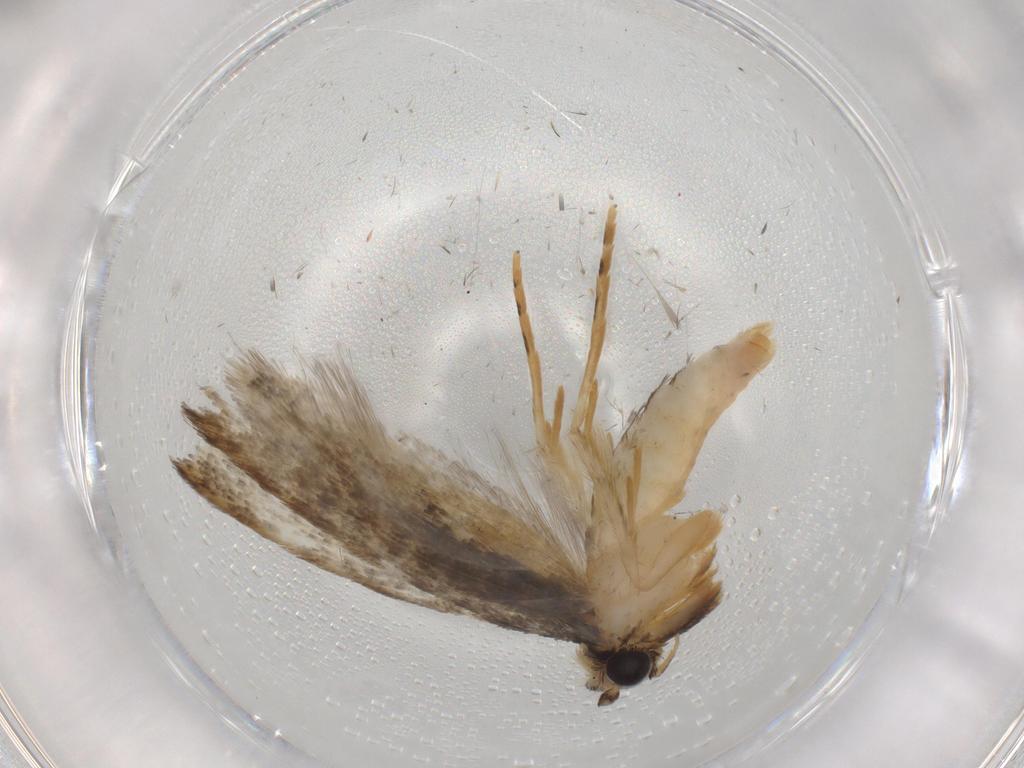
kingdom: Animalia
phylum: Arthropoda
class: Insecta
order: Lepidoptera
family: Tineidae
